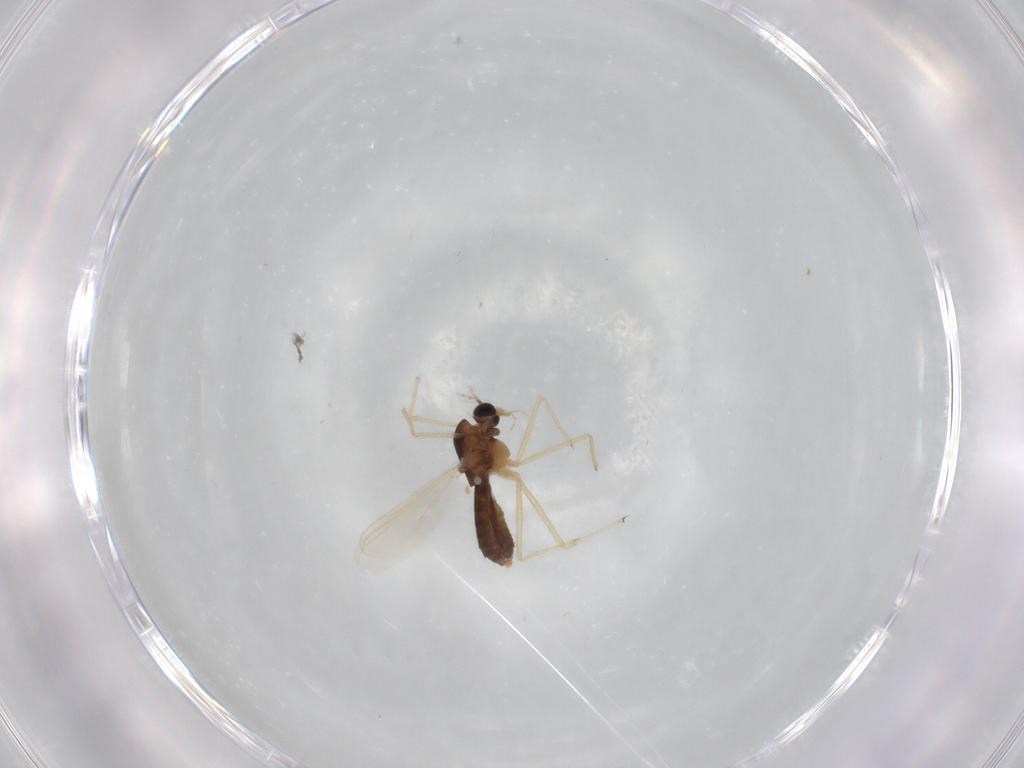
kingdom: Animalia
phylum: Arthropoda
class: Insecta
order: Diptera
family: Chironomidae
